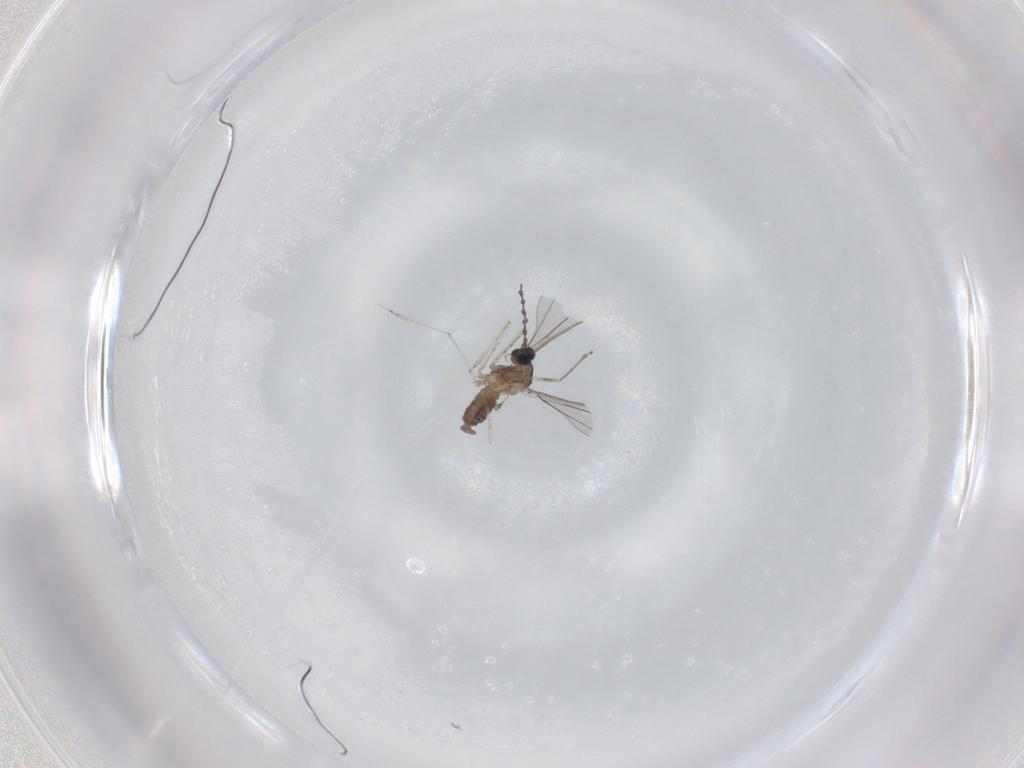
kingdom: Animalia
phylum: Arthropoda
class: Insecta
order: Diptera
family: Cecidomyiidae
